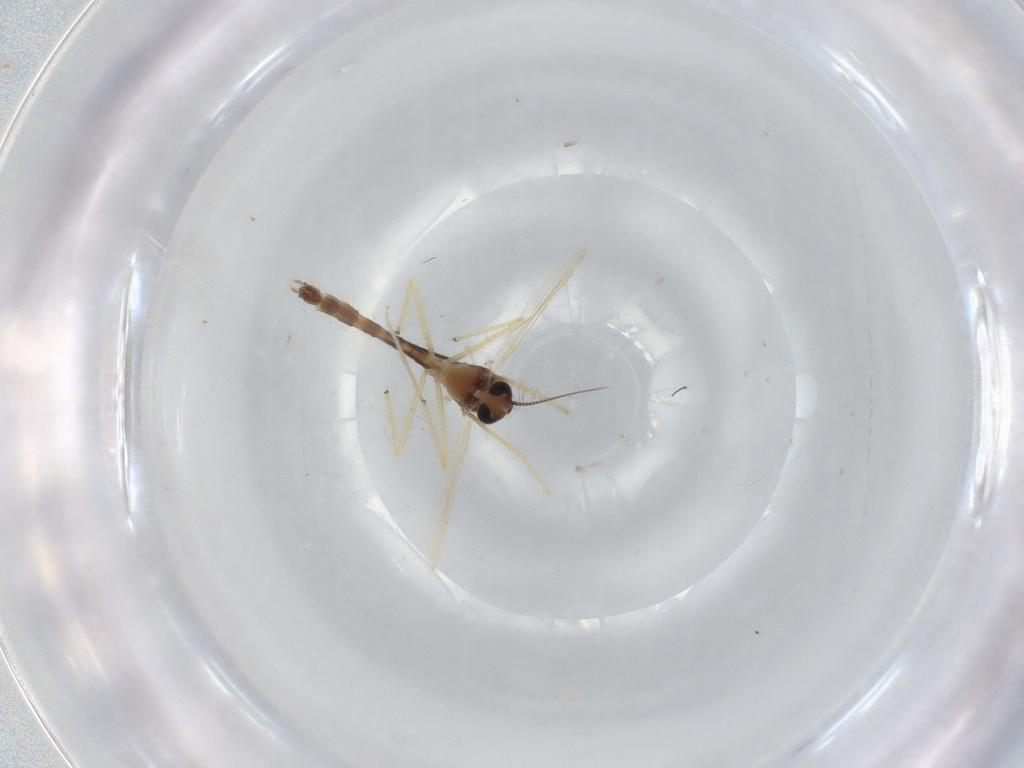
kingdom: Animalia
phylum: Arthropoda
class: Insecta
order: Diptera
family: Chironomidae
